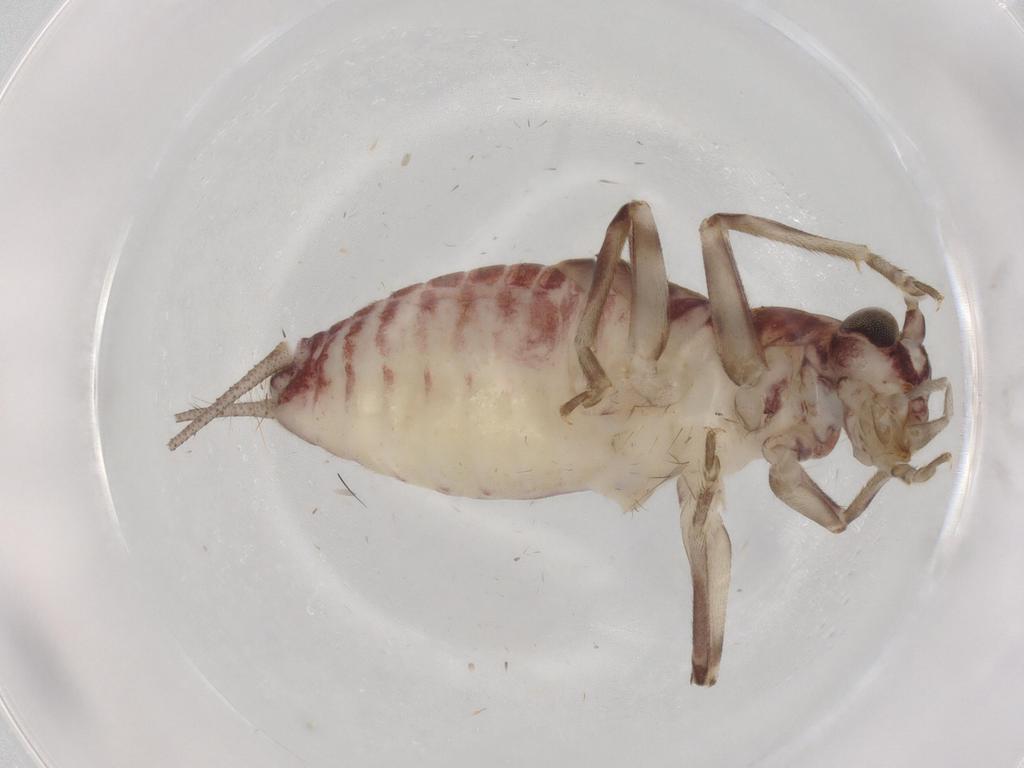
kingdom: Animalia
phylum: Arthropoda
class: Insecta
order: Orthoptera
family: Trigonidiidae
